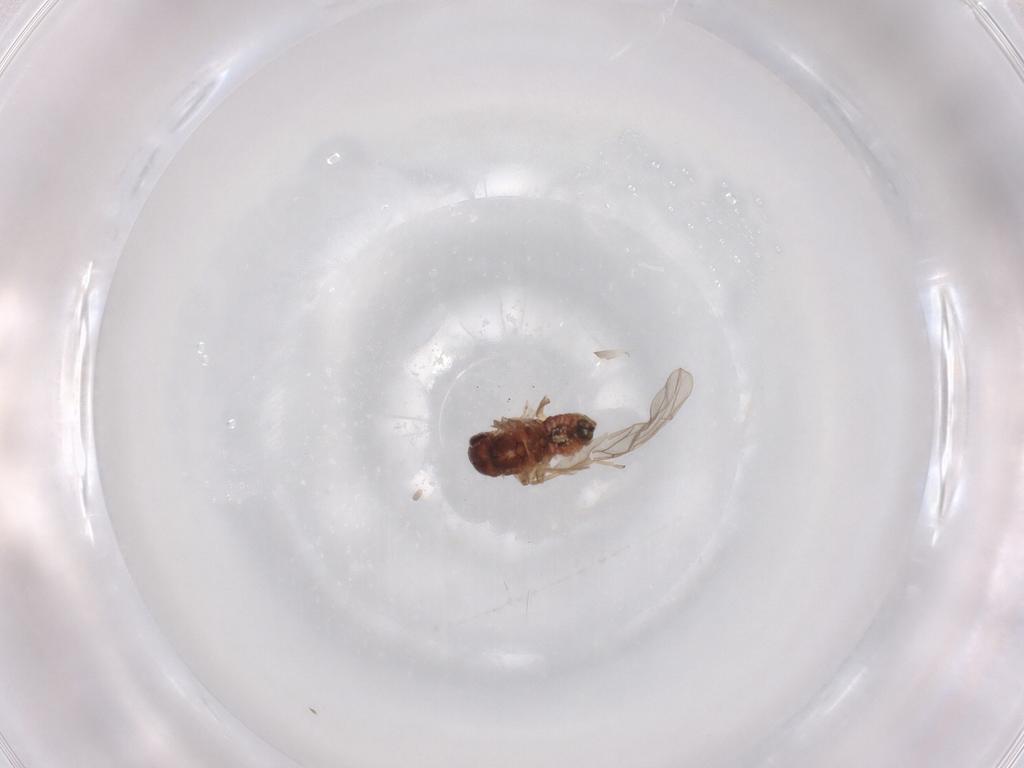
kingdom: Animalia
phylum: Arthropoda
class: Insecta
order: Psocodea
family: Caeciliusidae
